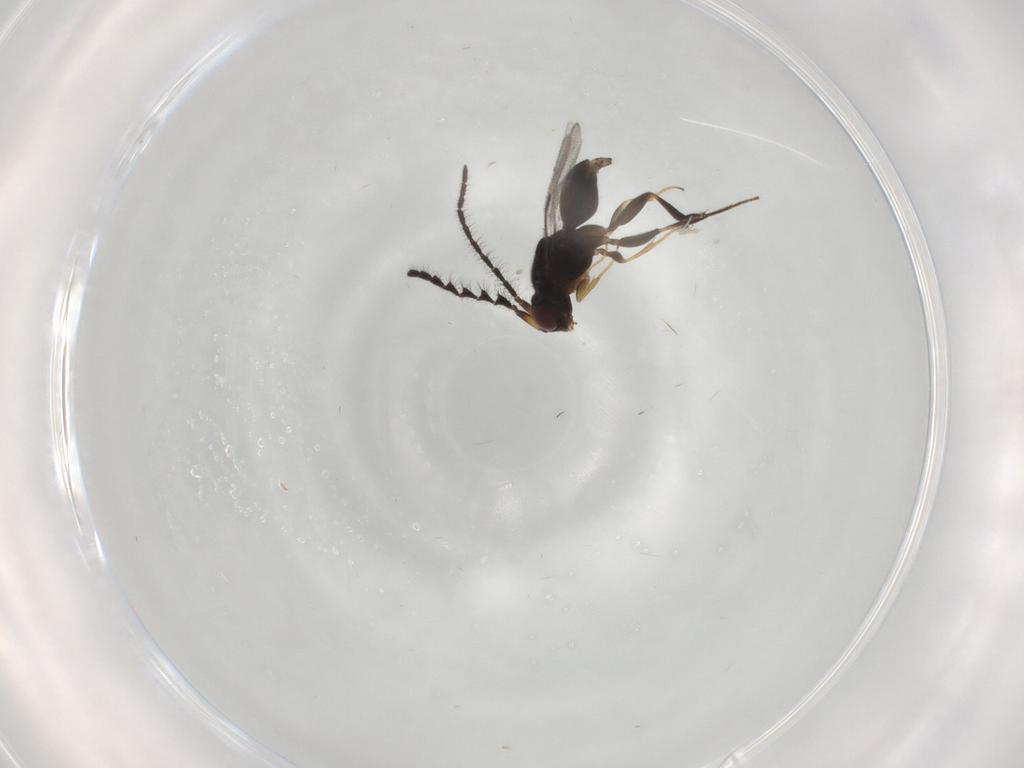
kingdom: Animalia
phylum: Arthropoda
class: Insecta
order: Hymenoptera
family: Megaspilidae
